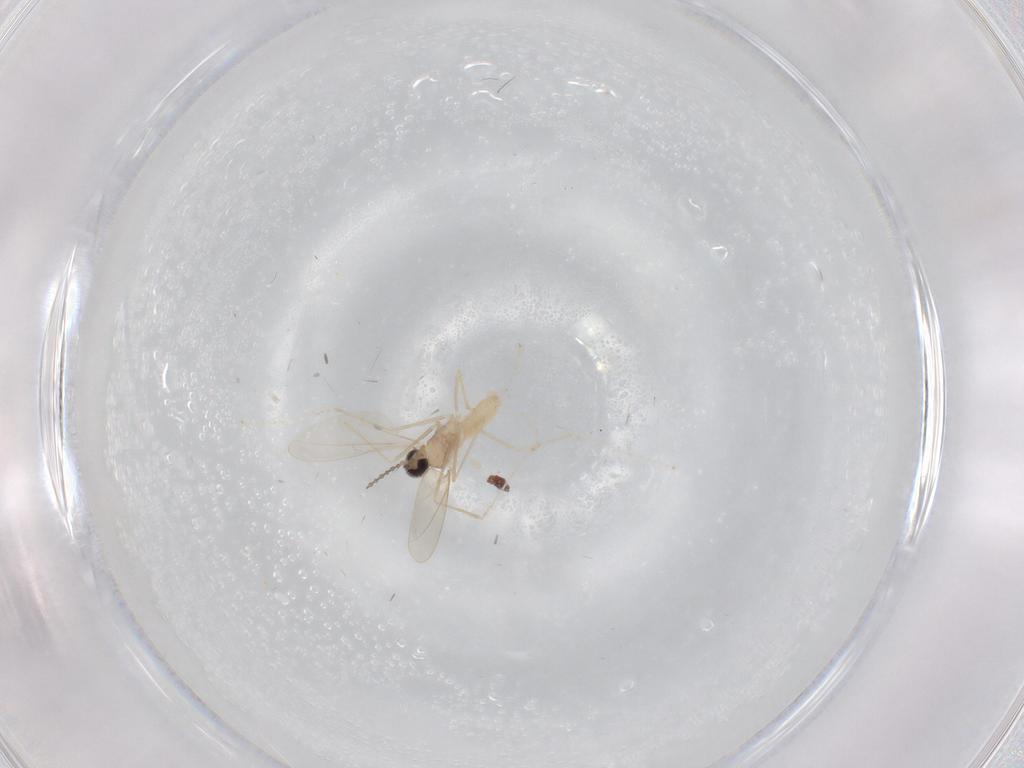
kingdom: Animalia
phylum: Arthropoda
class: Insecta
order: Diptera
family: Cecidomyiidae
